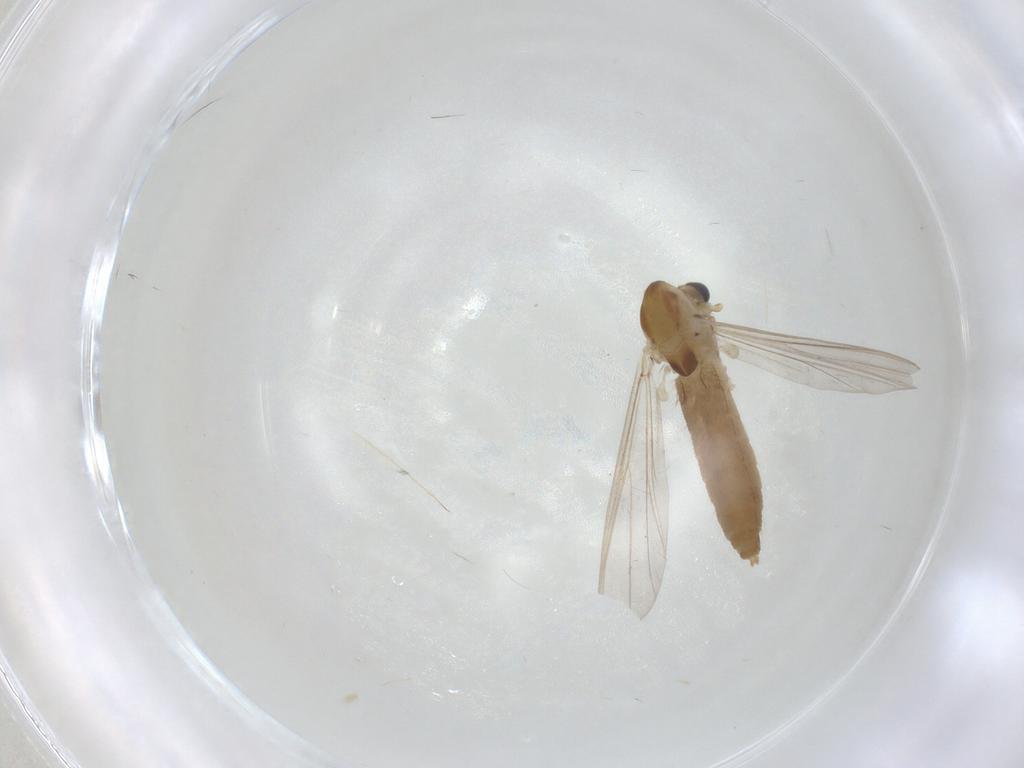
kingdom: Animalia
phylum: Arthropoda
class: Insecta
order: Diptera
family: Chironomidae
